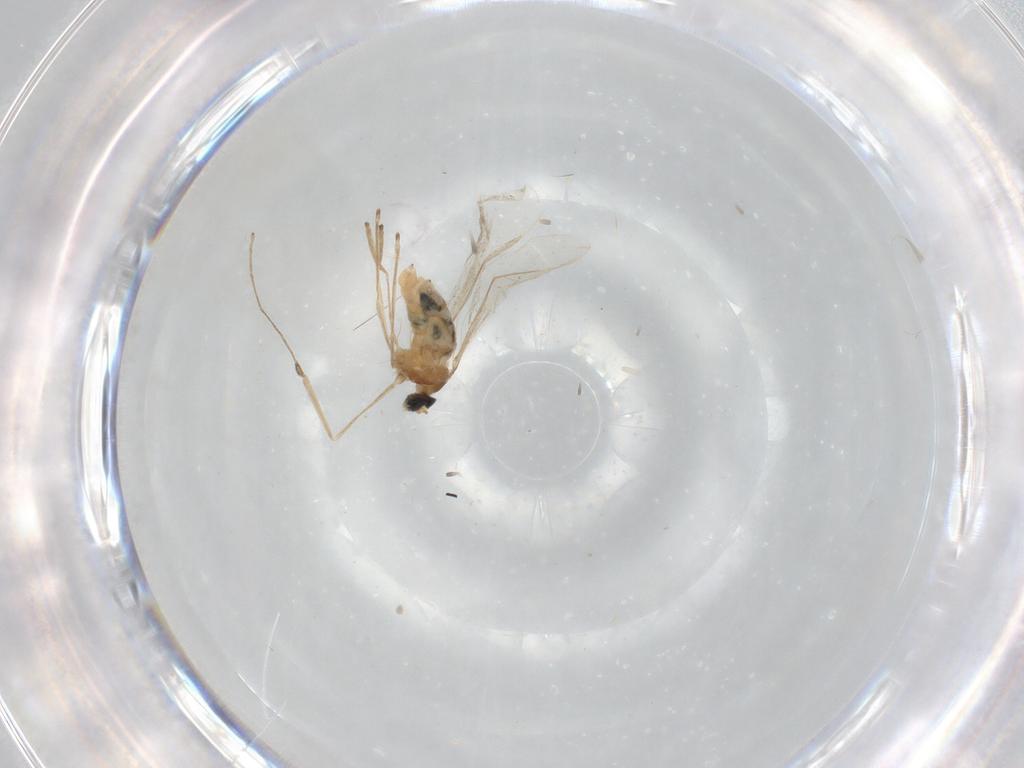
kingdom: Animalia
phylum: Arthropoda
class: Insecta
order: Diptera
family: Cecidomyiidae
